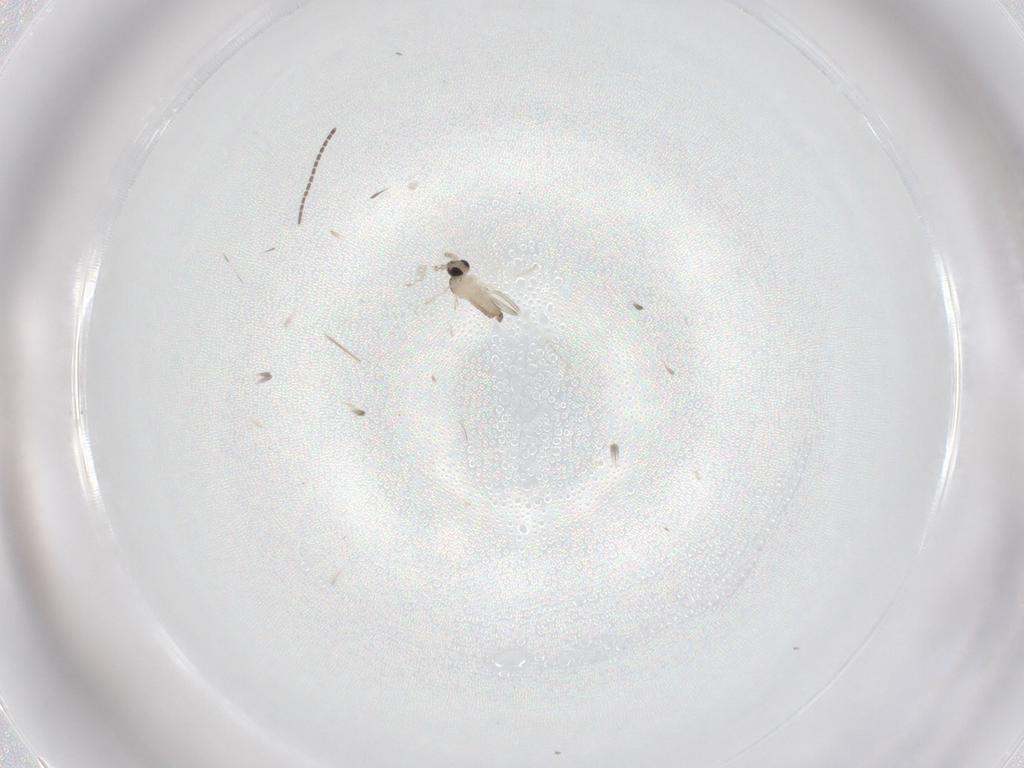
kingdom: Animalia
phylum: Arthropoda
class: Insecta
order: Diptera
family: Cecidomyiidae
